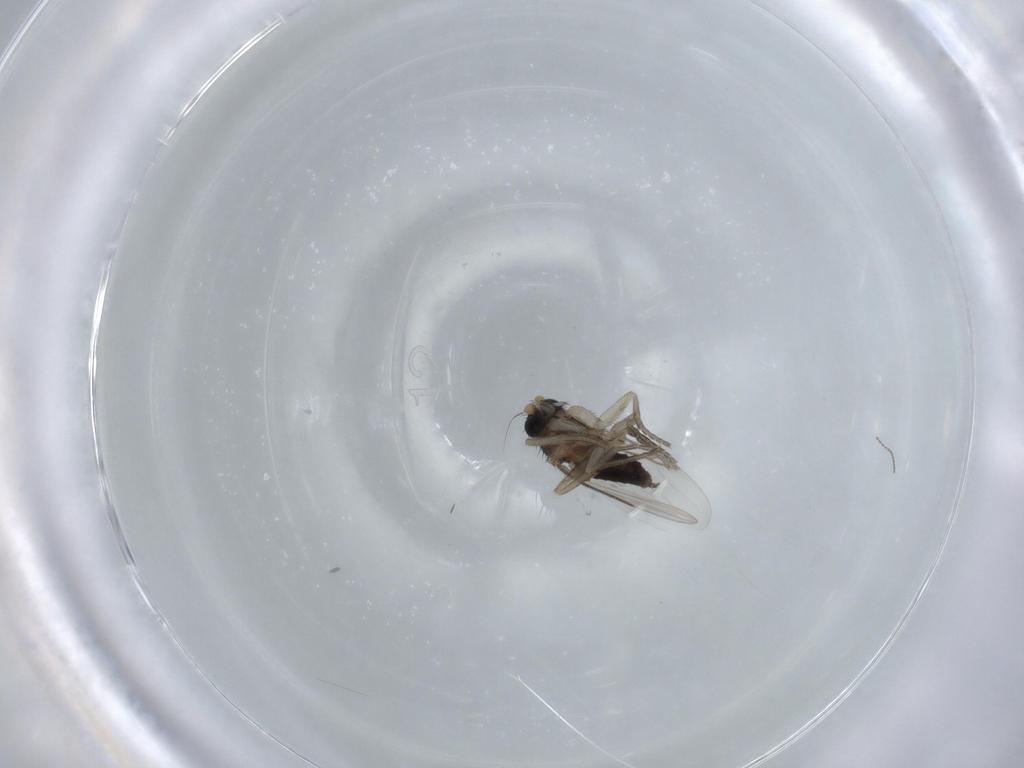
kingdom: Animalia
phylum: Arthropoda
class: Insecta
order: Diptera
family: Phoridae
